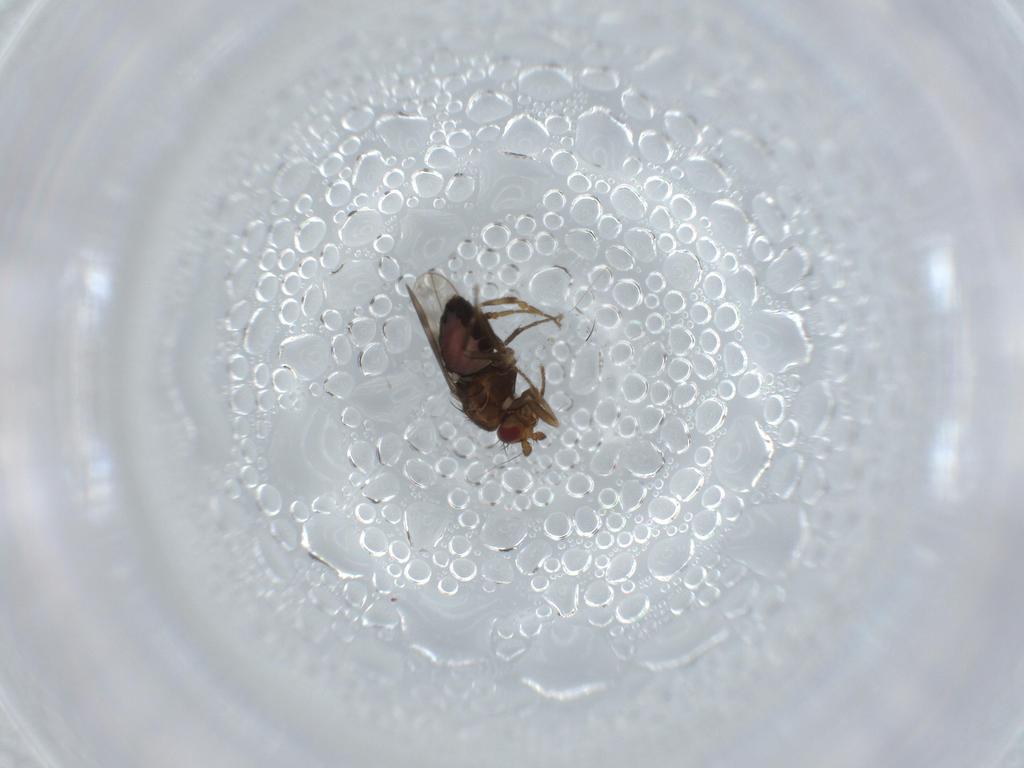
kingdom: Animalia
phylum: Arthropoda
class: Insecta
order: Diptera
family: Sphaeroceridae
